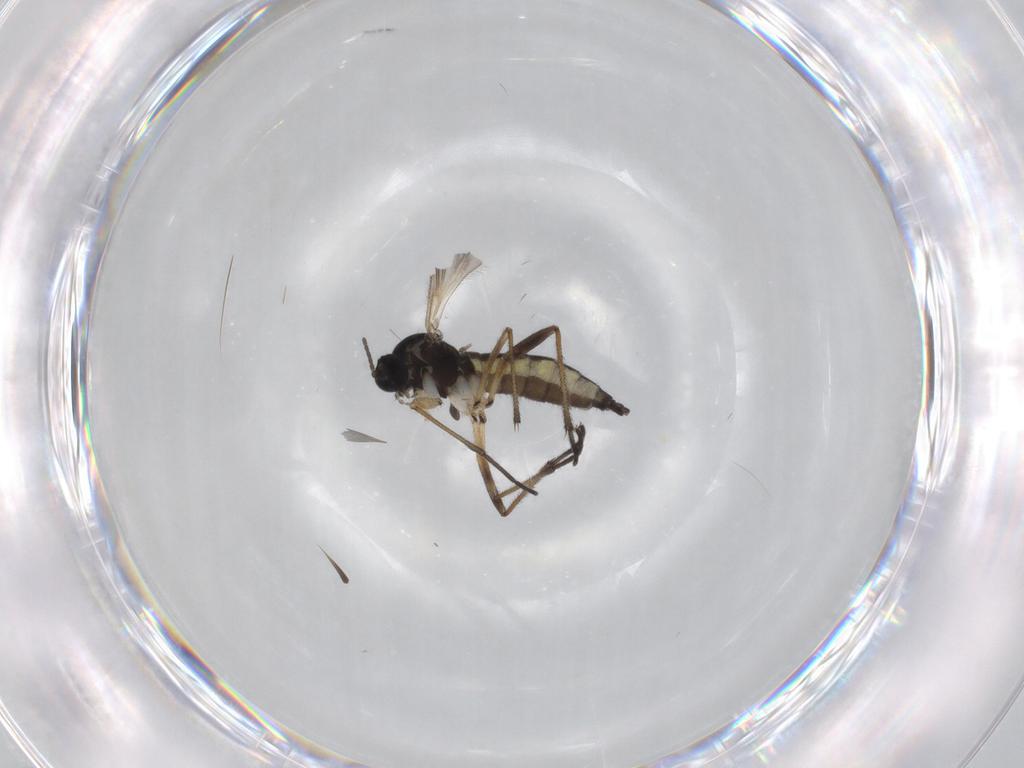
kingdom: Animalia
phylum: Arthropoda
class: Insecta
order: Diptera
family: Sciaridae
